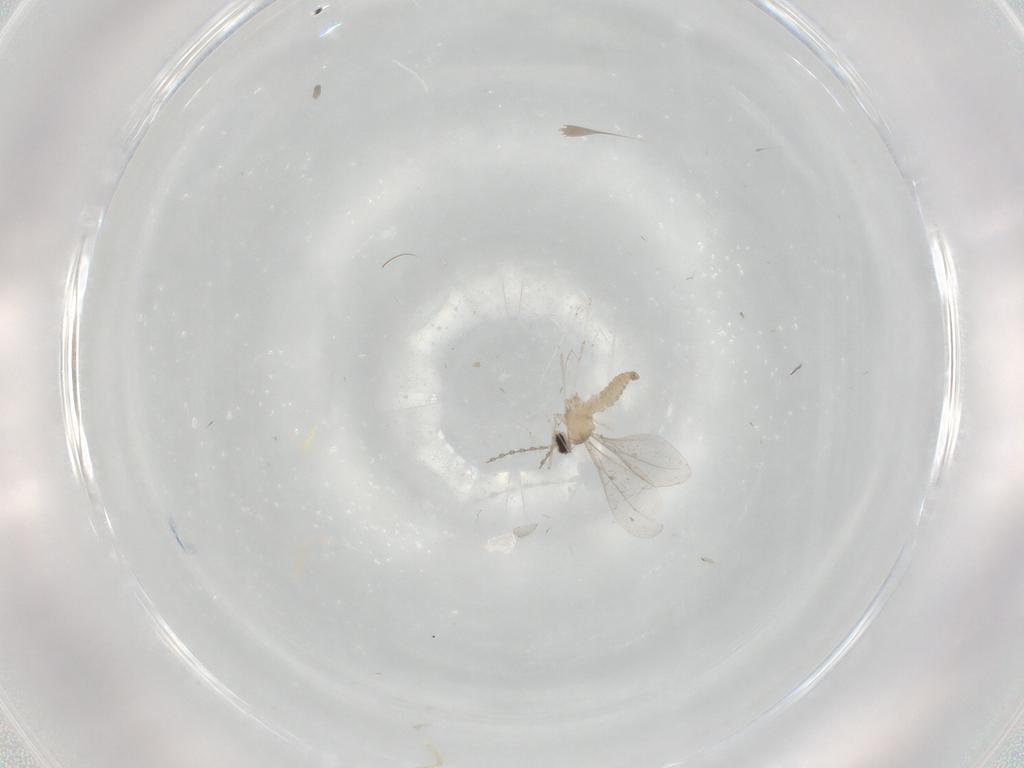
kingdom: Animalia
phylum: Arthropoda
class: Insecta
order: Diptera
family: Cecidomyiidae
